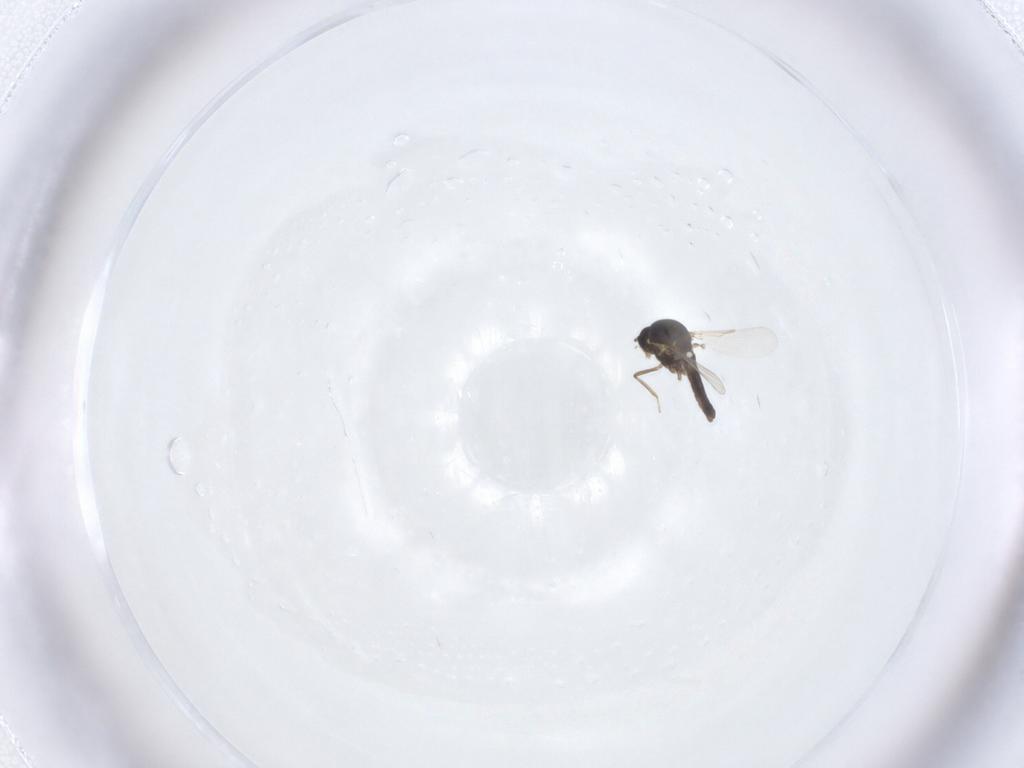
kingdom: Animalia
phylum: Arthropoda
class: Insecta
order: Diptera
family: Ceratopogonidae
